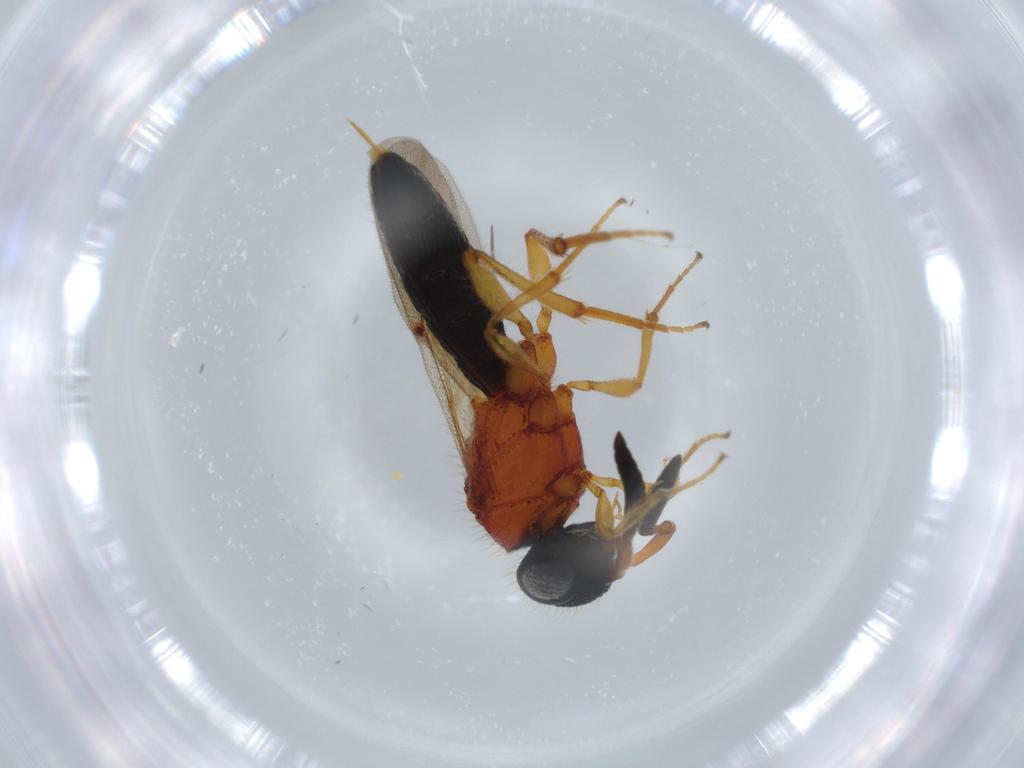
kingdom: Animalia
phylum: Arthropoda
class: Insecta
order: Hymenoptera
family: Scelionidae
